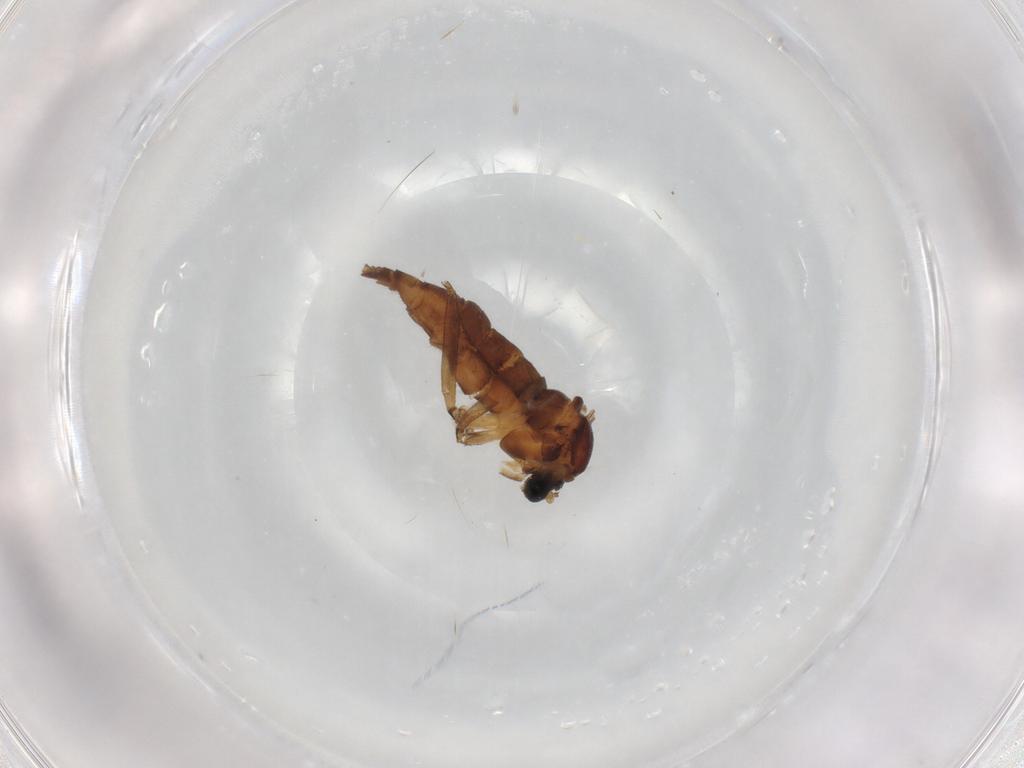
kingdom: Animalia
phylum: Arthropoda
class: Insecta
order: Diptera
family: Sciaridae
